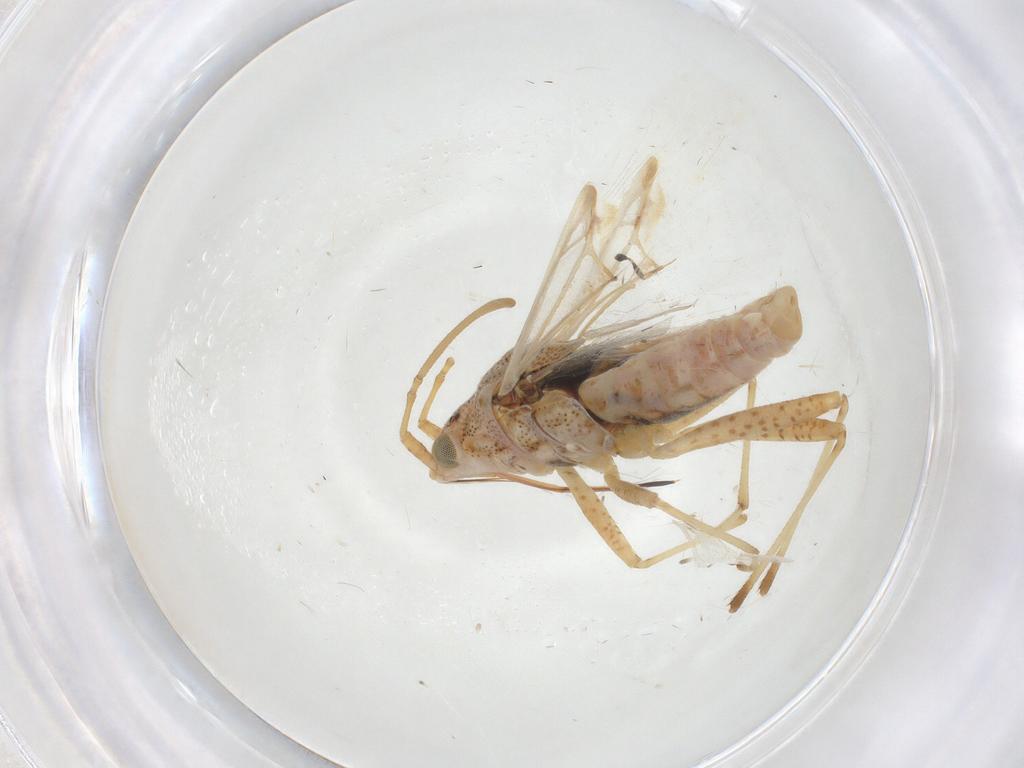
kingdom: Animalia
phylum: Arthropoda
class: Insecta
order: Hemiptera
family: Lygaeidae
